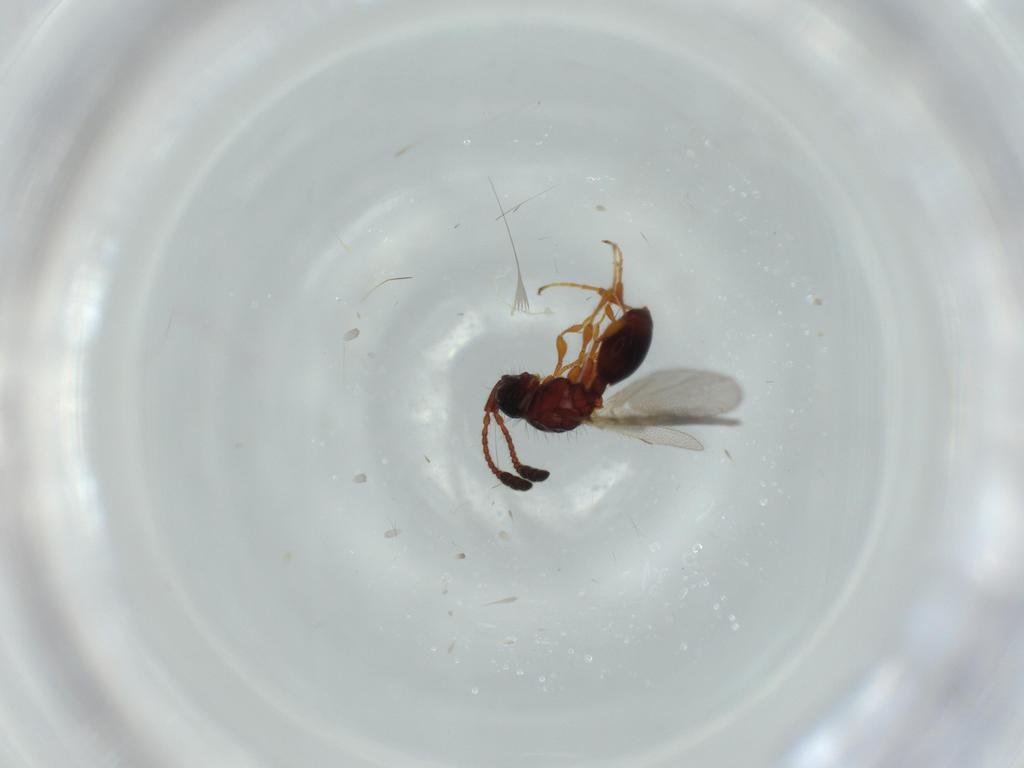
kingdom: Animalia
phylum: Arthropoda
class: Insecta
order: Hymenoptera
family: Diapriidae
